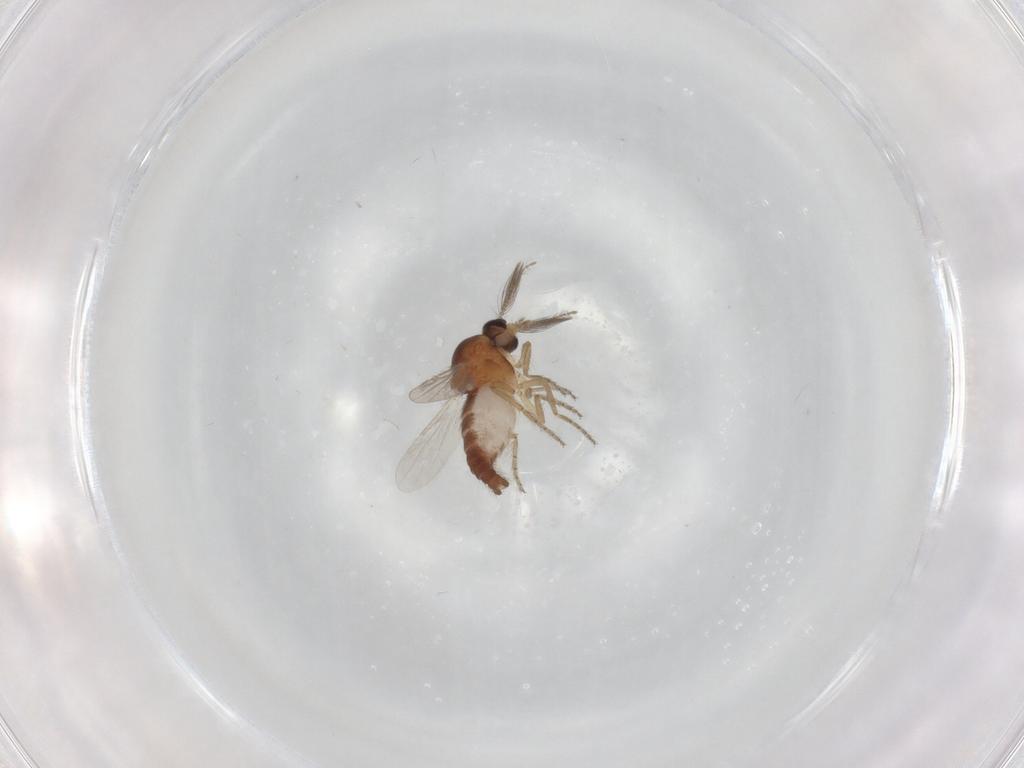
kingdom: Animalia
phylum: Arthropoda
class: Insecta
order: Diptera
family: Ceratopogonidae
